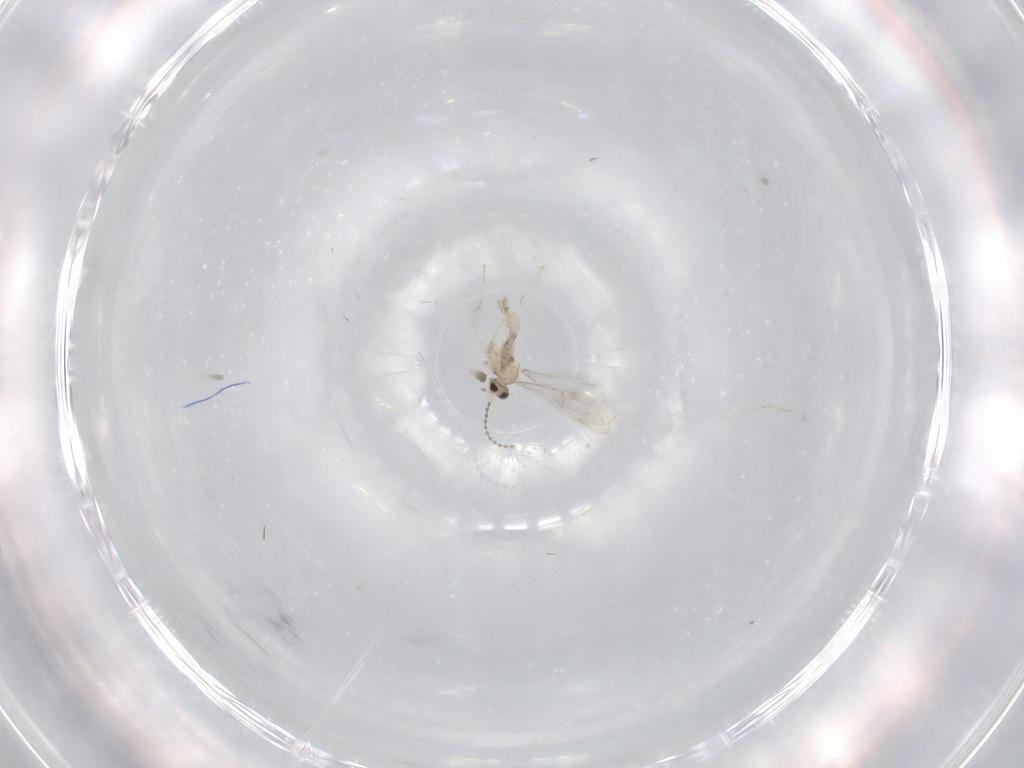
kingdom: Animalia
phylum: Arthropoda
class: Insecta
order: Diptera
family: Cecidomyiidae
